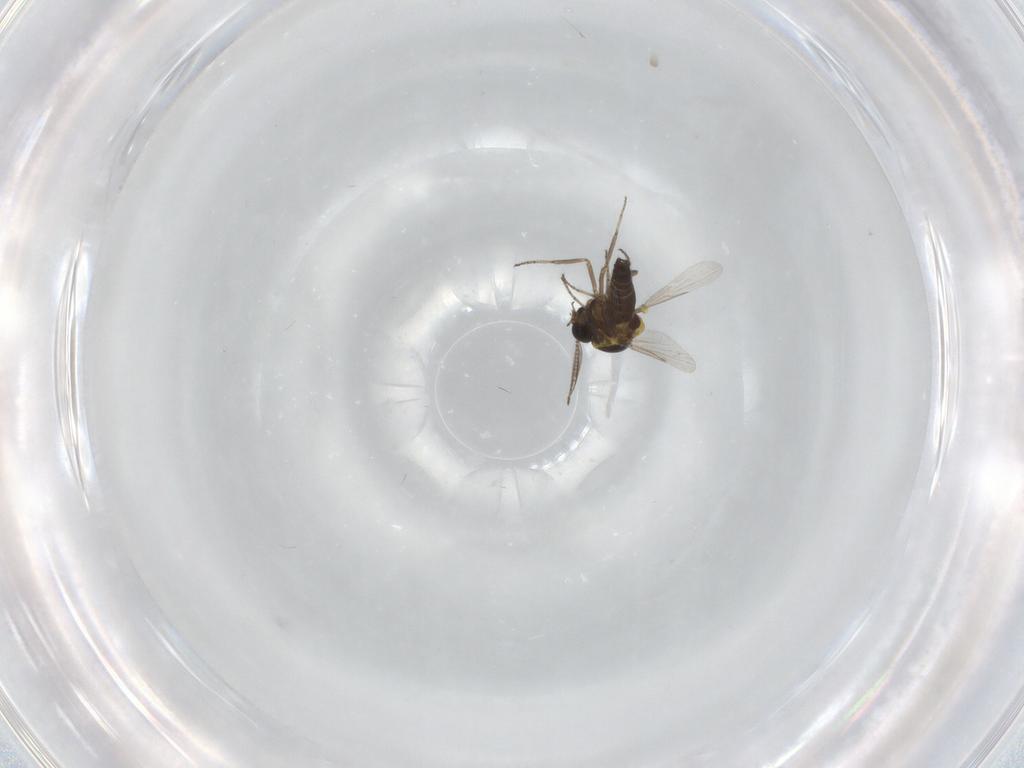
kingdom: Animalia
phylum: Arthropoda
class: Insecta
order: Diptera
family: Ceratopogonidae
